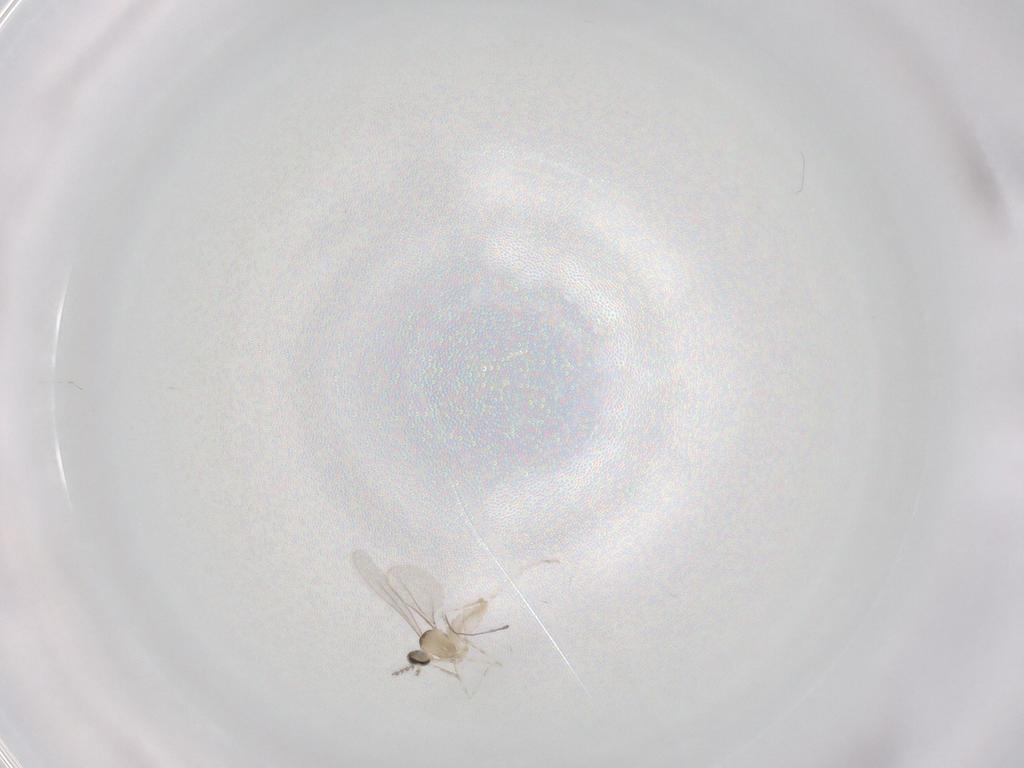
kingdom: Animalia
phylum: Arthropoda
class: Insecta
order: Diptera
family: Cecidomyiidae
